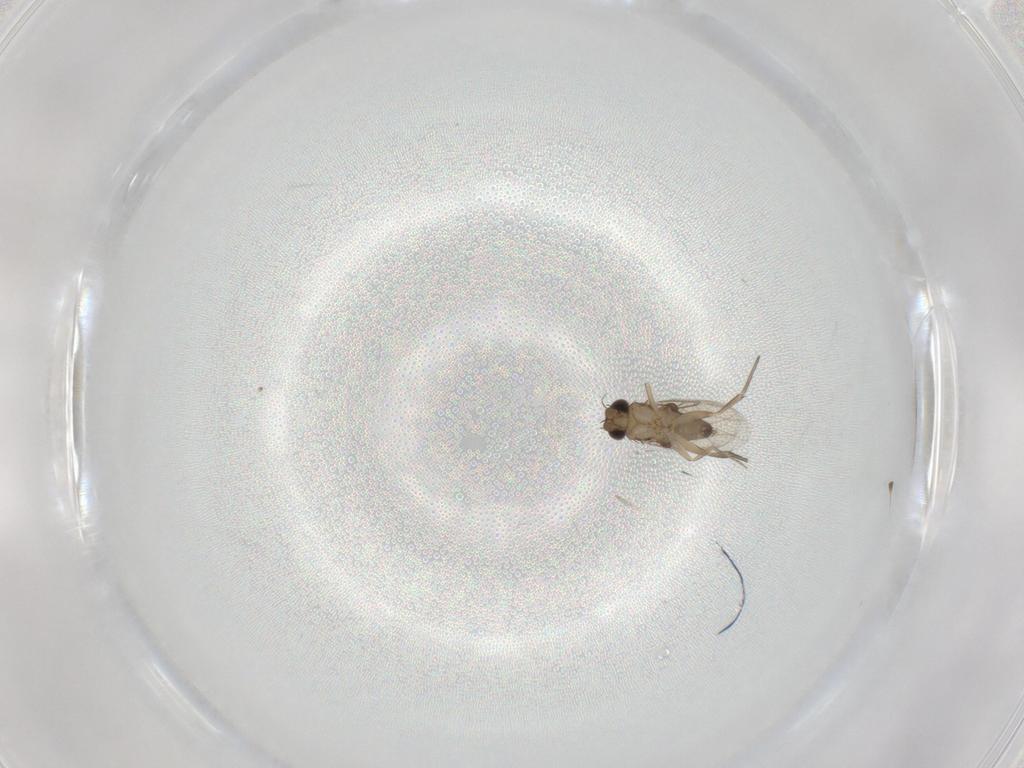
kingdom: Animalia
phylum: Arthropoda
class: Insecta
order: Diptera
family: Phoridae
